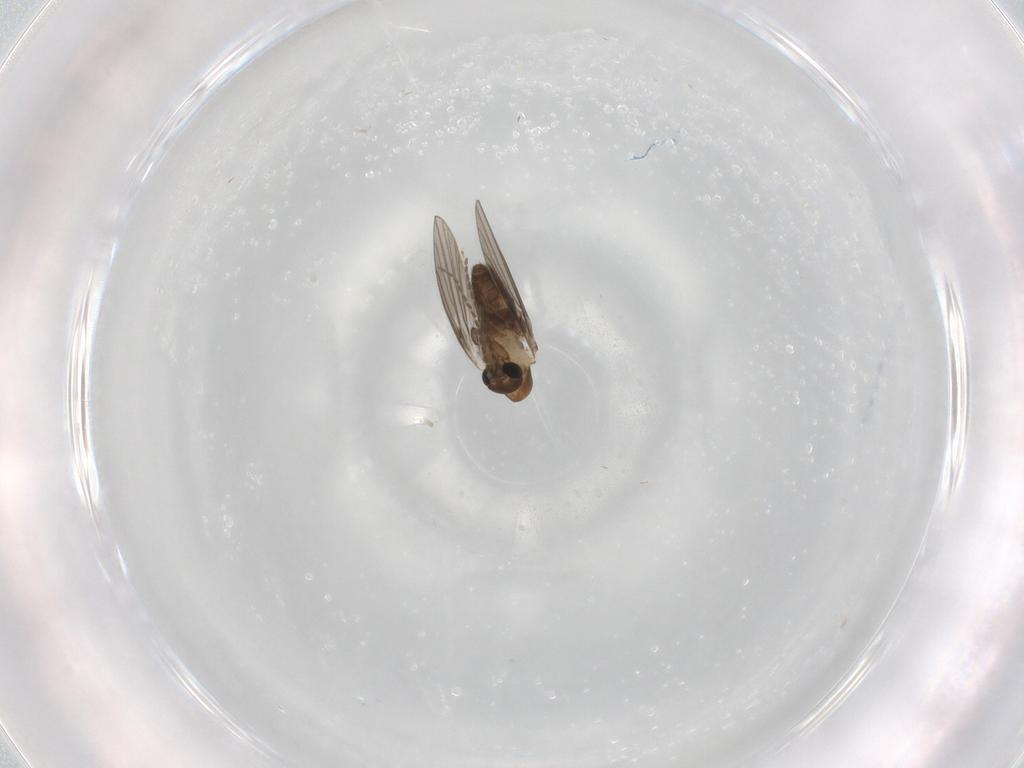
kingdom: Animalia
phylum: Arthropoda
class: Insecta
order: Diptera
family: Psychodidae
